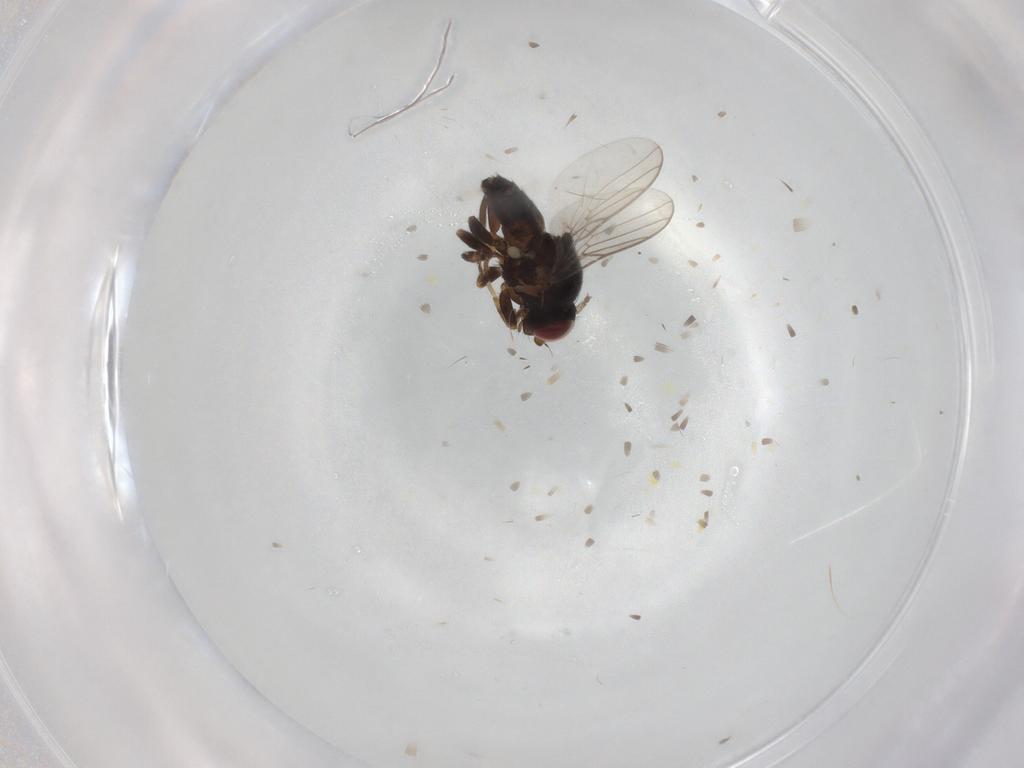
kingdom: Animalia
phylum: Arthropoda
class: Insecta
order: Diptera
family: Chloropidae
